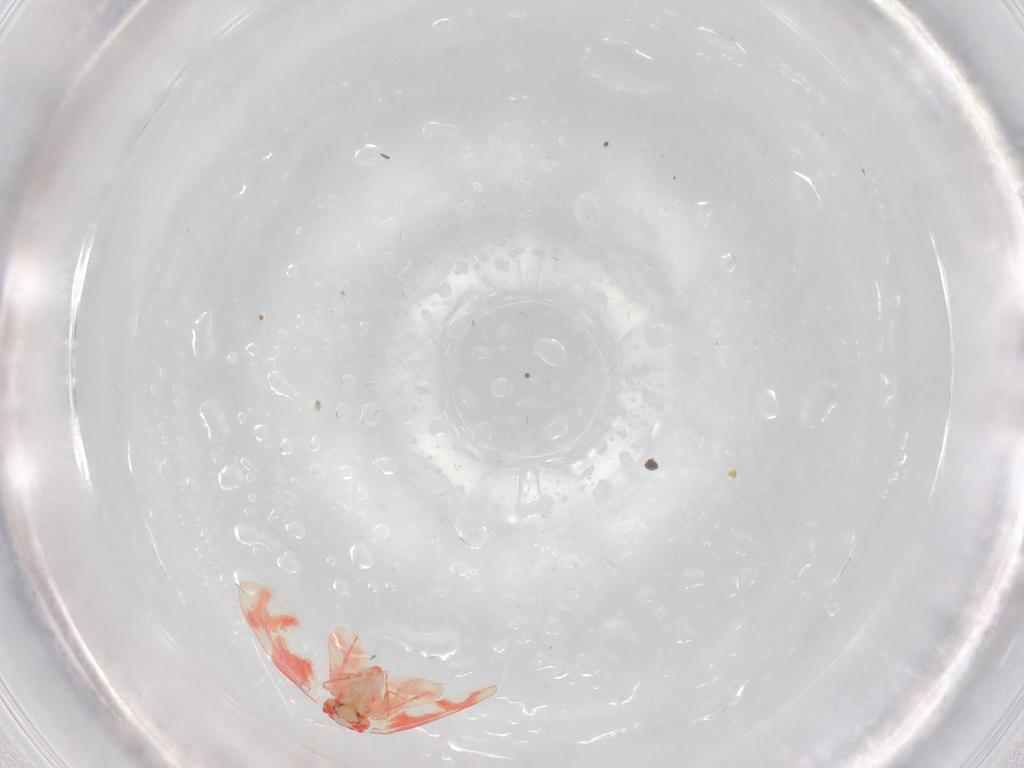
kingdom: Animalia
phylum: Arthropoda
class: Insecta
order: Hemiptera
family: Aleyrodidae
